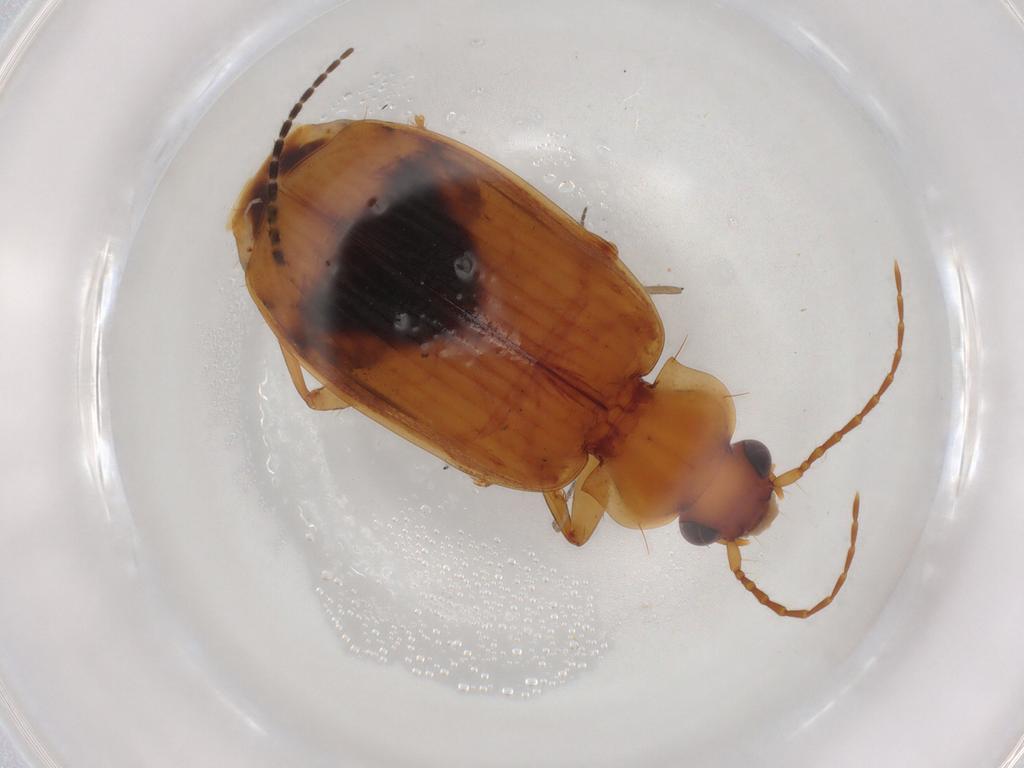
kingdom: Animalia
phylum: Arthropoda
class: Insecta
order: Coleoptera
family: Carabidae
